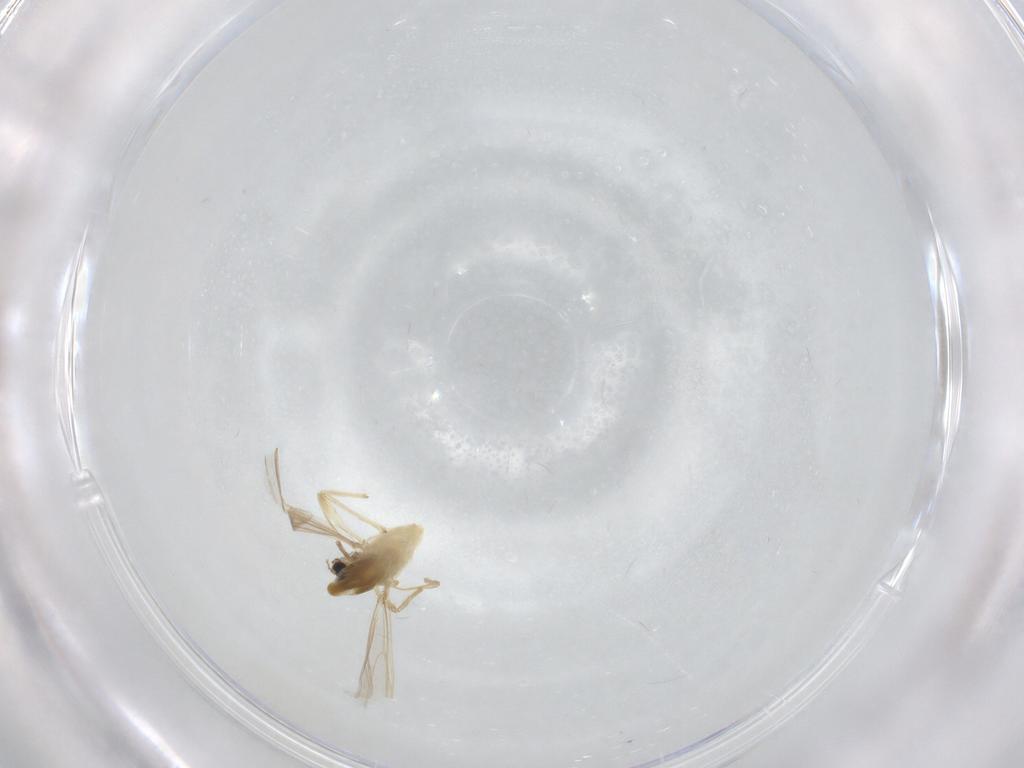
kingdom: Animalia
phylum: Arthropoda
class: Insecta
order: Diptera
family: Chironomidae
